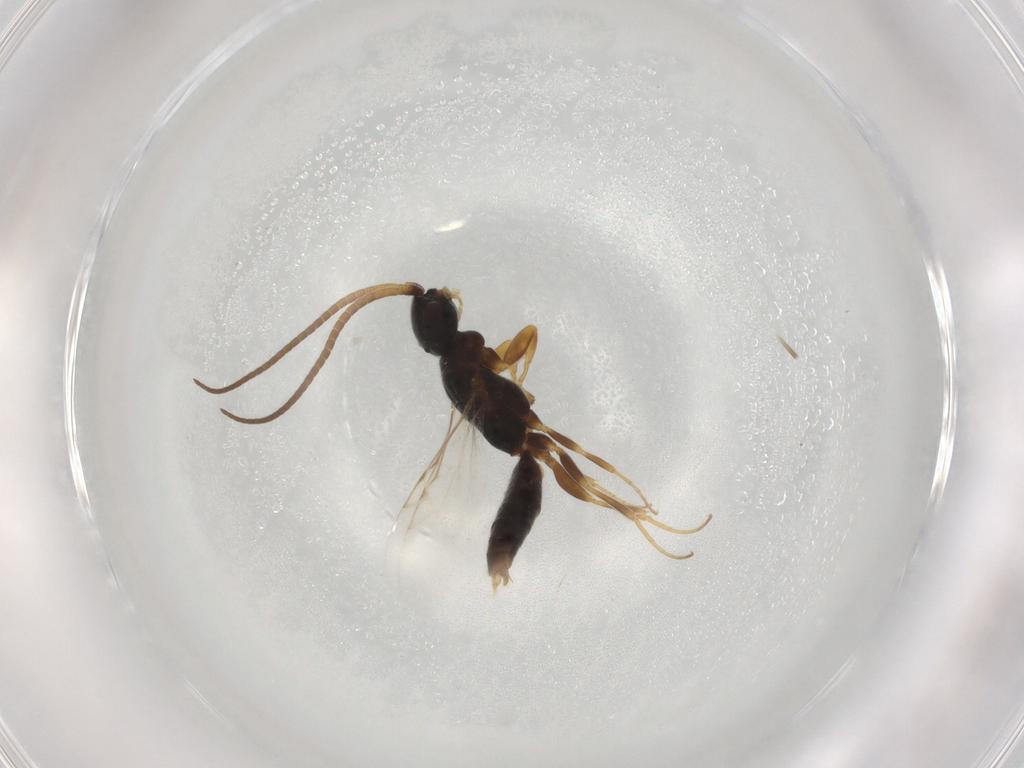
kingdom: Animalia
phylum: Arthropoda
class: Insecta
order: Hymenoptera
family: Sclerogibbidae
